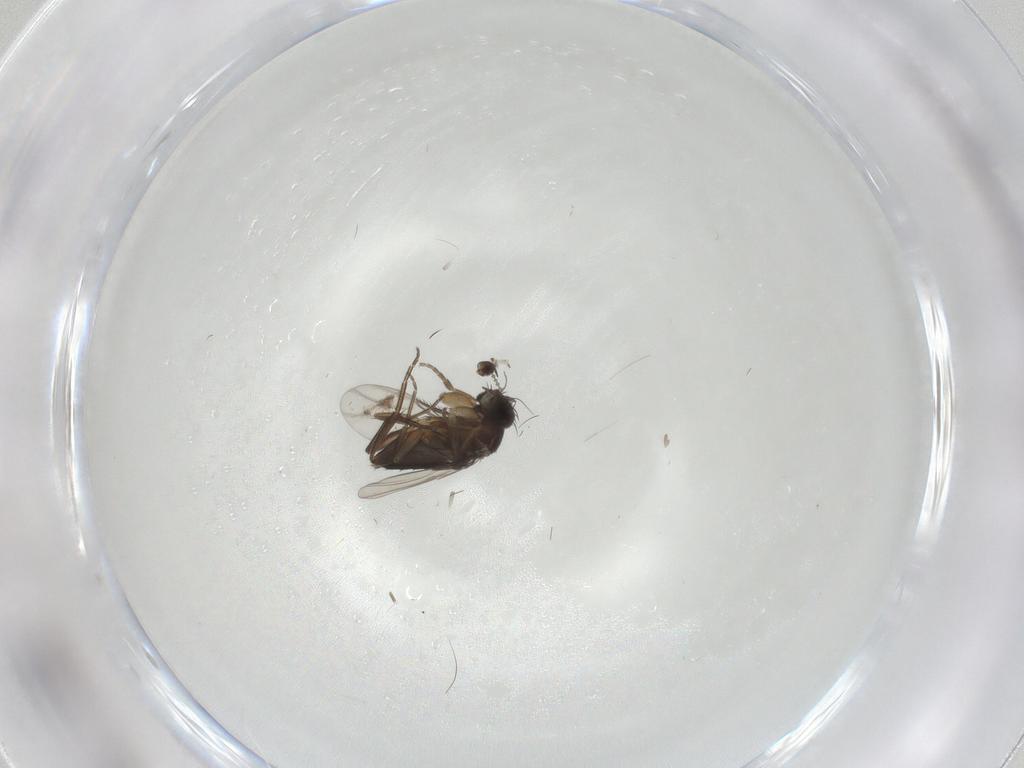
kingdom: Animalia
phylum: Arthropoda
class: Insecta
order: Diptera
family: Phoridae
